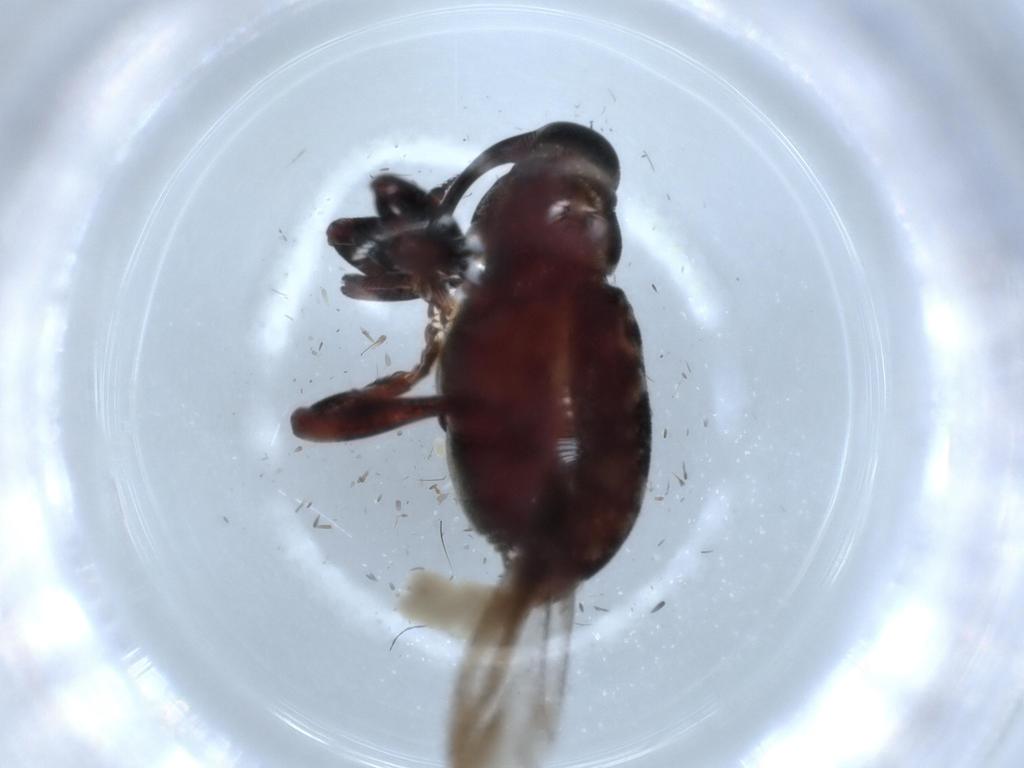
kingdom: Animalia
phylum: Arthropoda
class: Insecta
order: Coleoptera
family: Curculionidae
